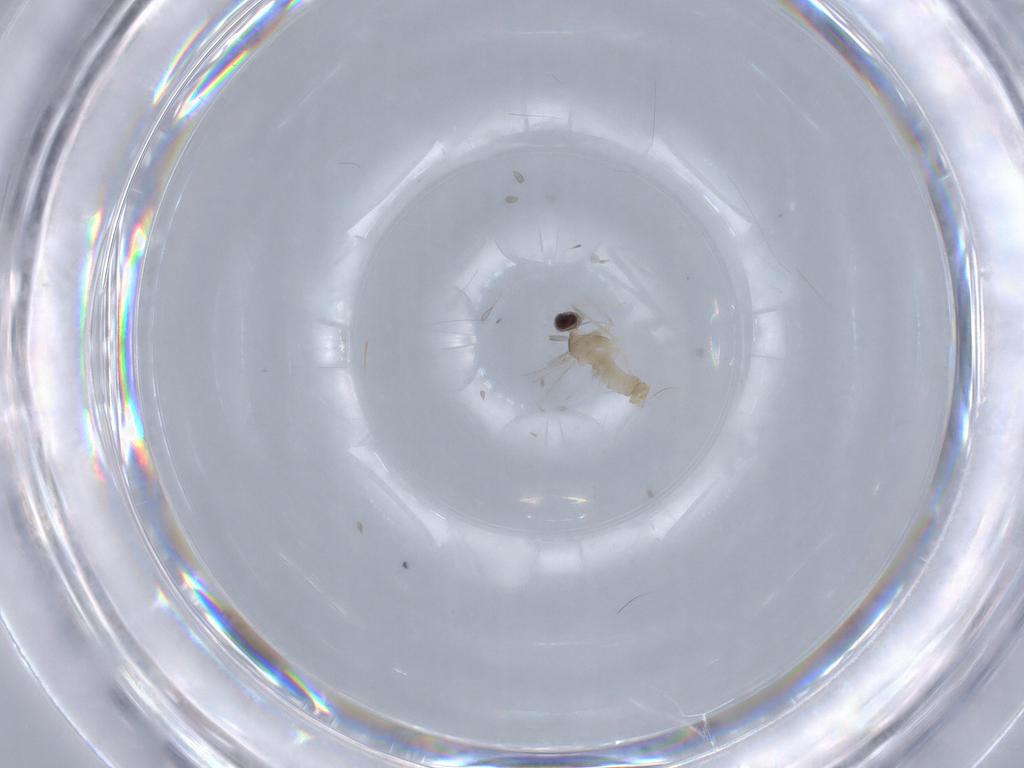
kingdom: Animalia
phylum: Arthropoda
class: Insecta
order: Diptera
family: Cecidomyiidae
